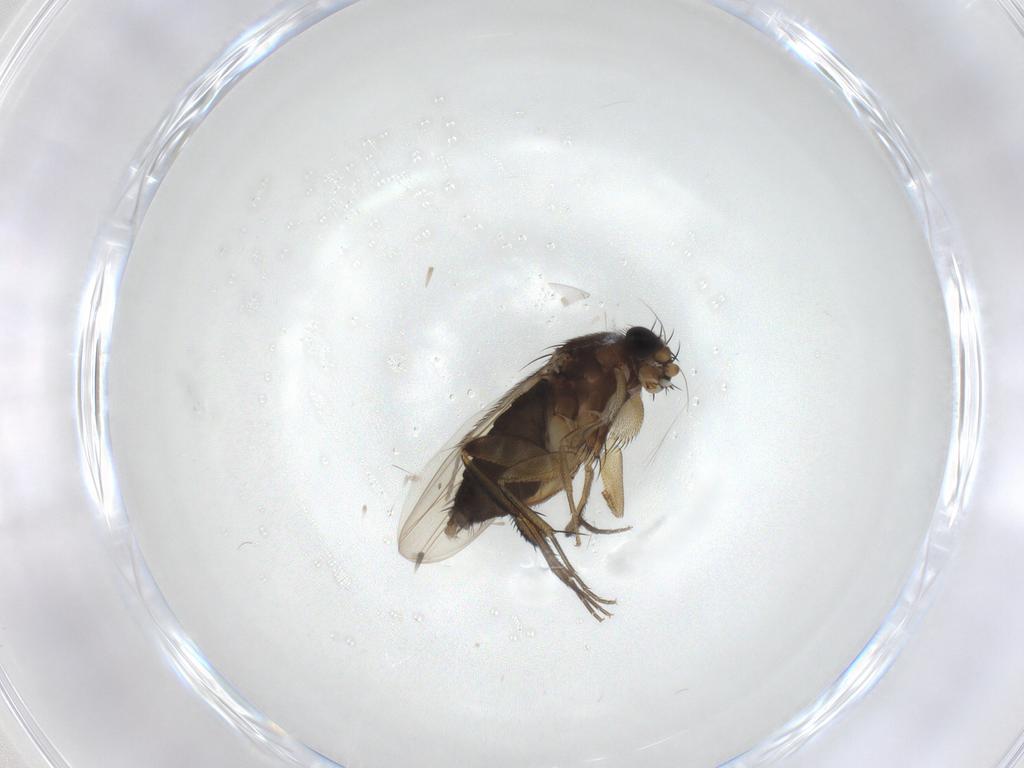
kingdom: Animalia
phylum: Arthropoda
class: Insecta
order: Diptera
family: Phoridae
